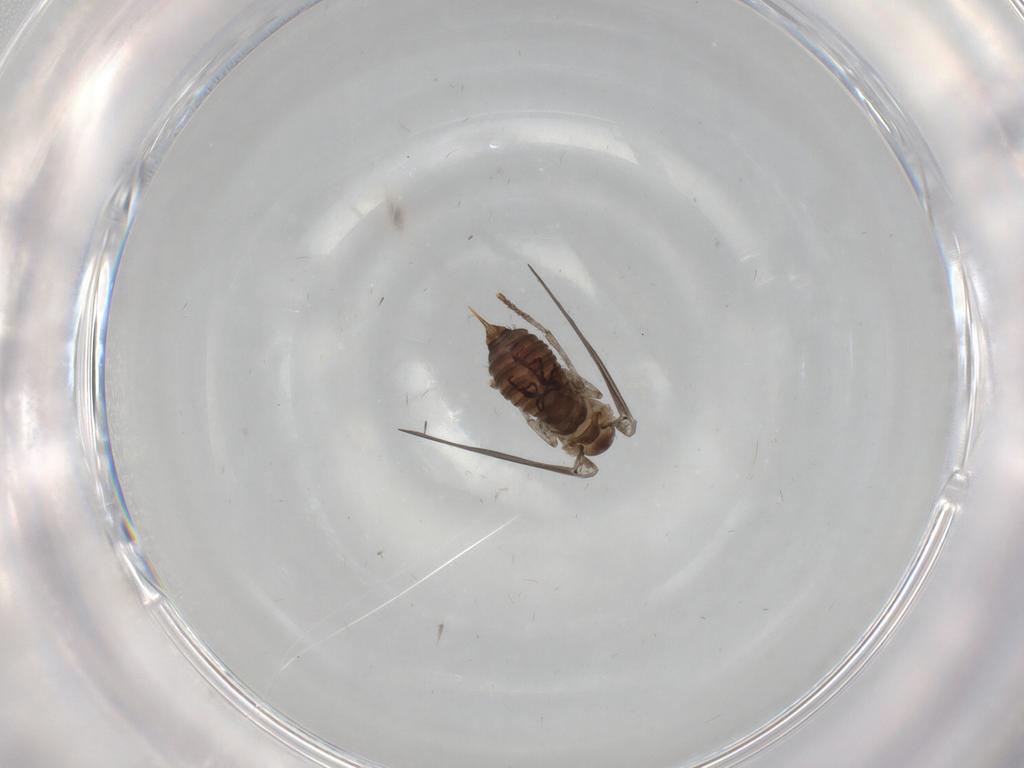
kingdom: Animalia
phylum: Arthropoda
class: Insecta
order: Diptera
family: Psychodidae
